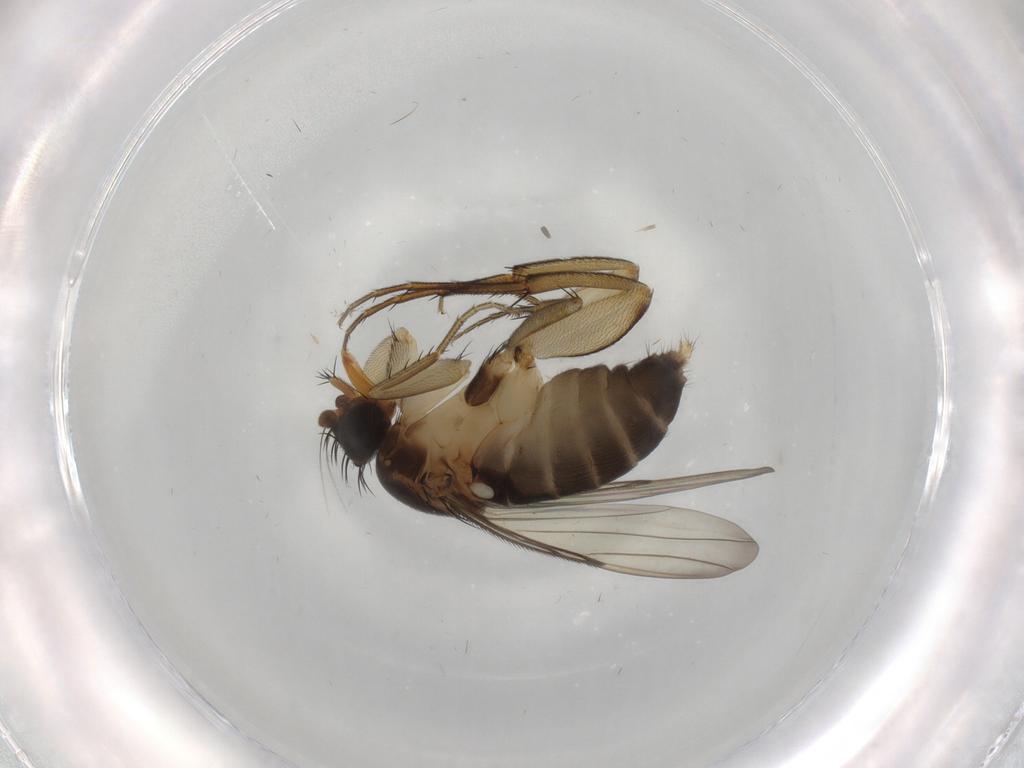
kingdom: Animalia
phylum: Arthropoda
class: Insecta
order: Diptera
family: Phoridae
